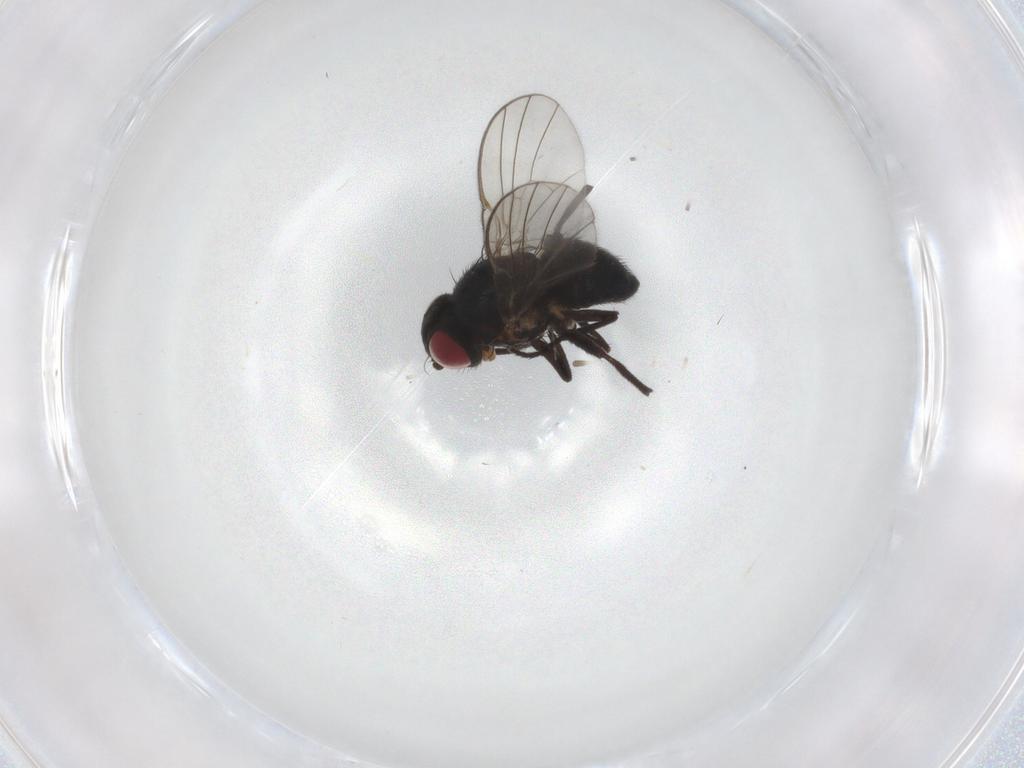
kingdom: Animalia
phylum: Arthropoda
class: Insecta
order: Diptera
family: Agromyzidae
